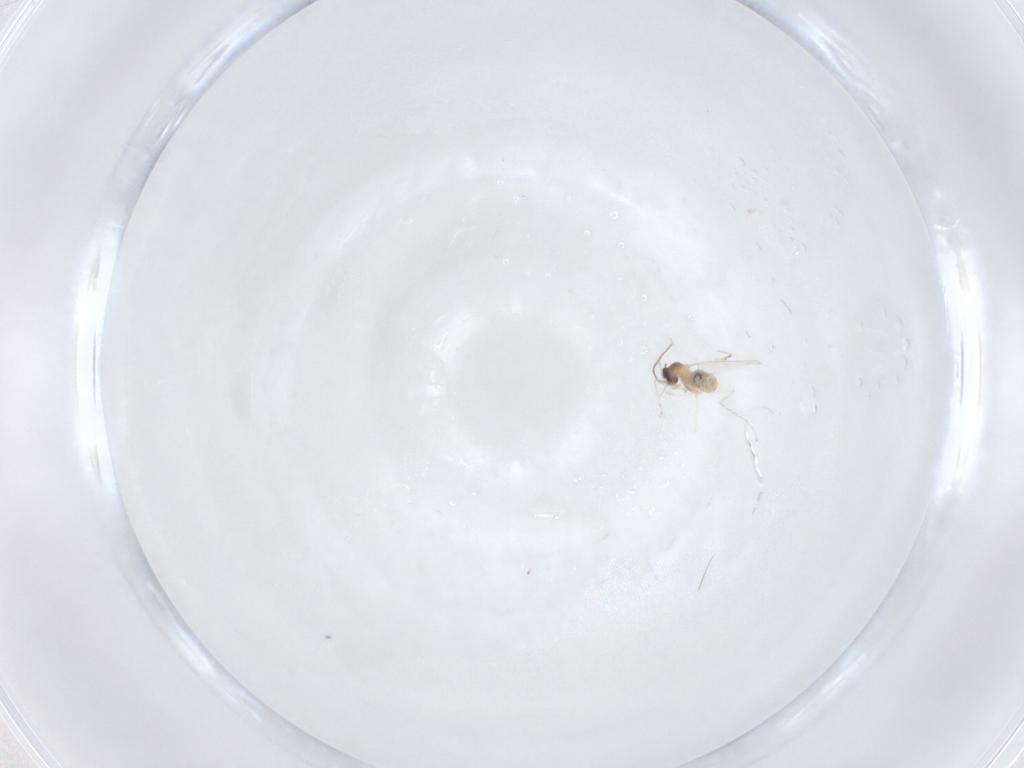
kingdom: Animalia
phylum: Arthropoda
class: Insecta
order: Diptera
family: Cecidomyiidae
